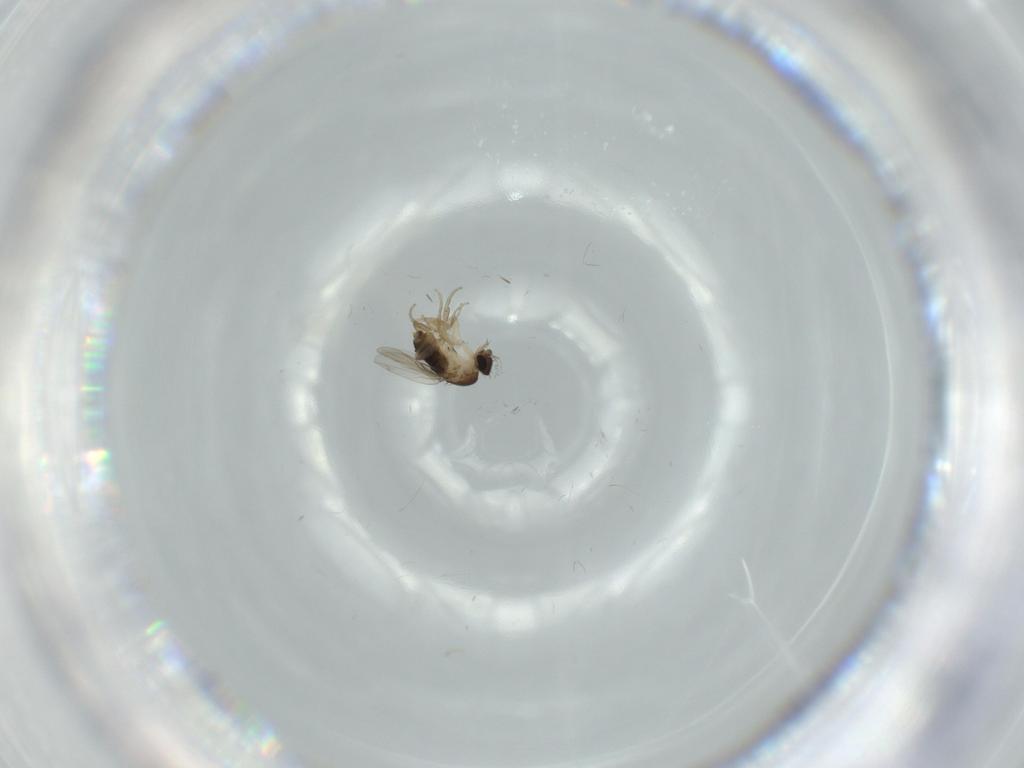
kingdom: Animalia
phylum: Arthropoda
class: Insecta
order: Diptera
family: Phoridae
